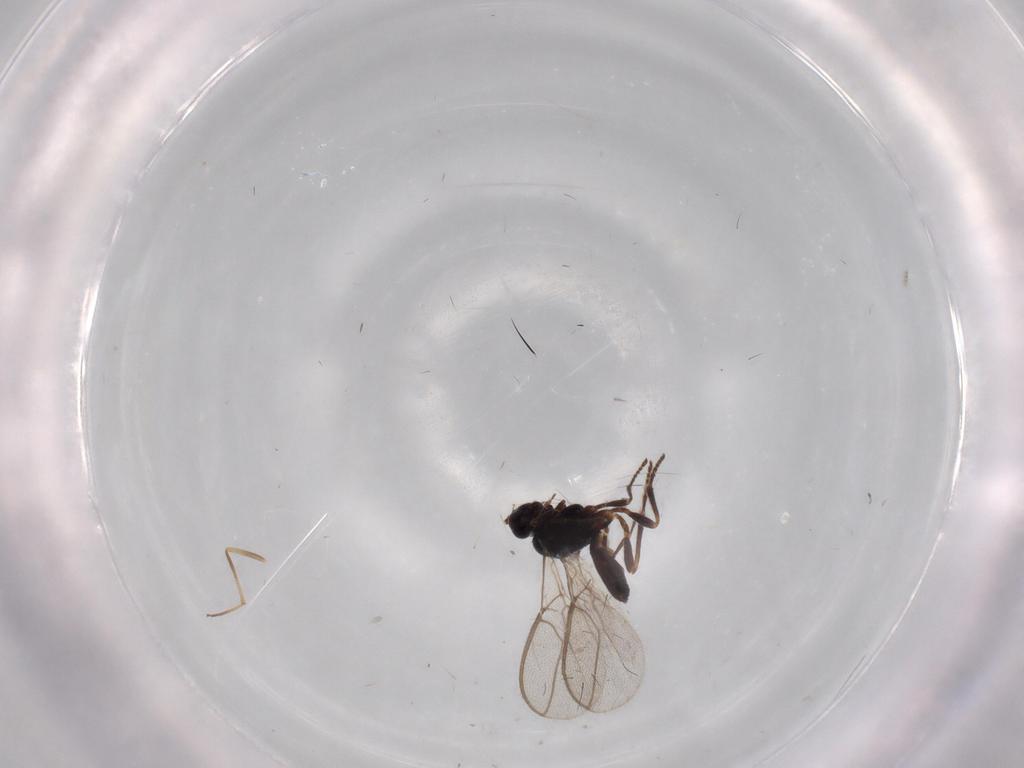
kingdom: Animalia
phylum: Arthropoda
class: Insecta
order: Hymenoptera
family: Braconidae
